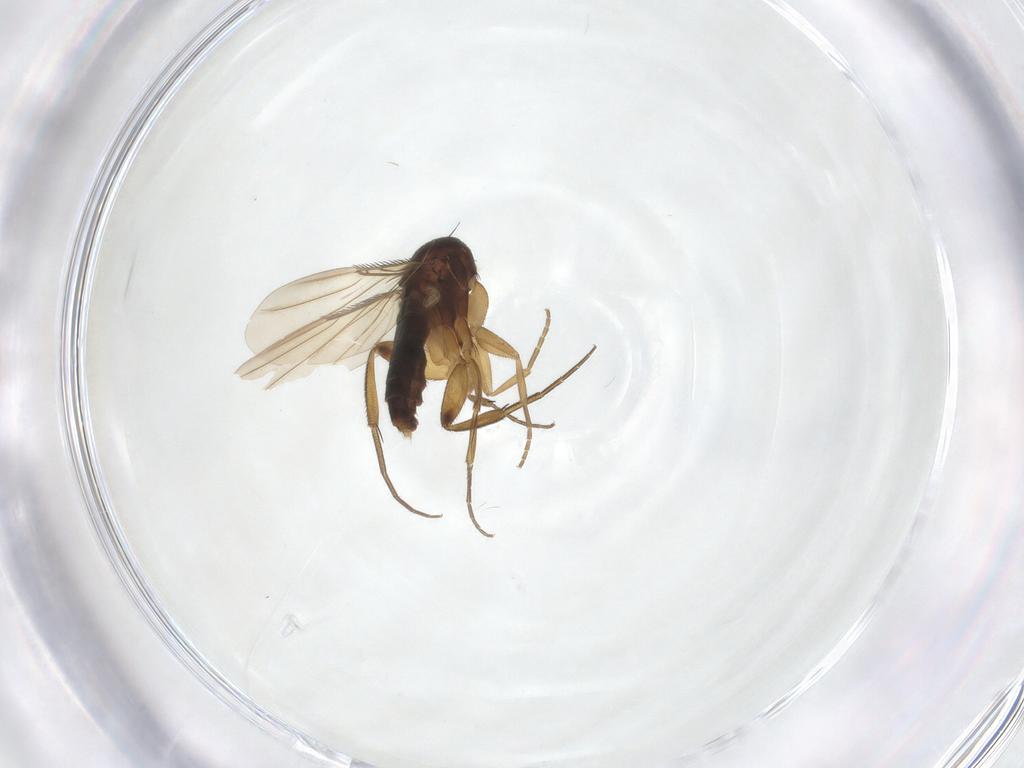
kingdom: Animalia
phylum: Arthropoda
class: Insecta
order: Diptera
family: Phoridae
